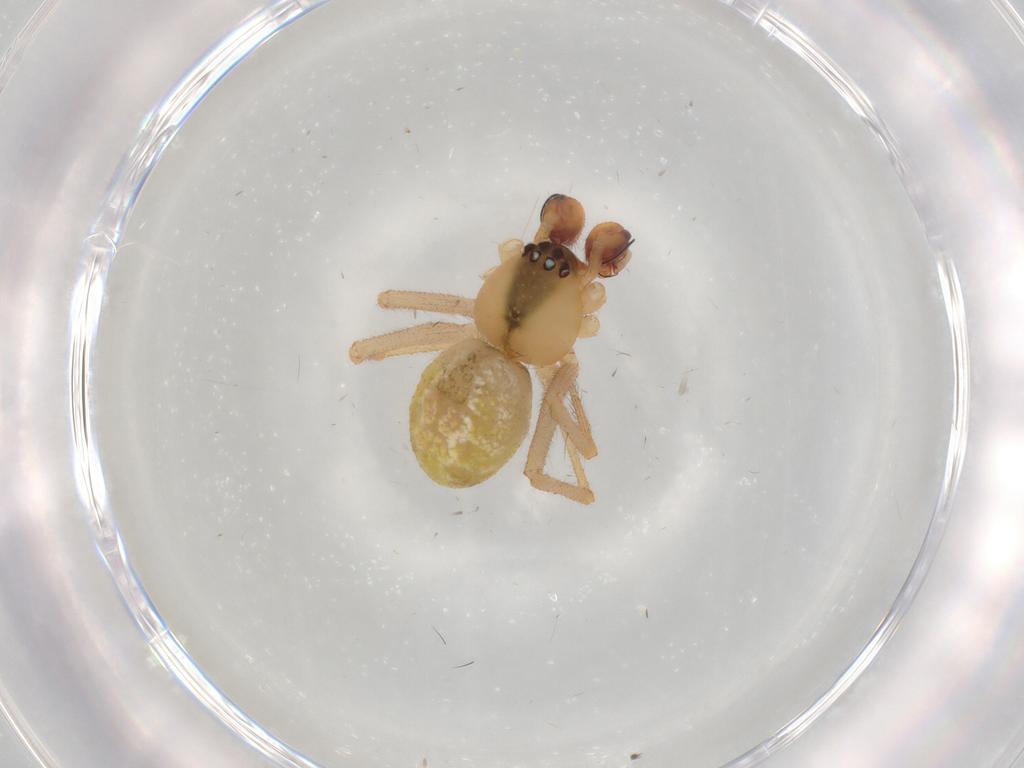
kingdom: Animalia
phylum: Arthropoda
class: Arachnida
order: Araneae
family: Theridiidae
